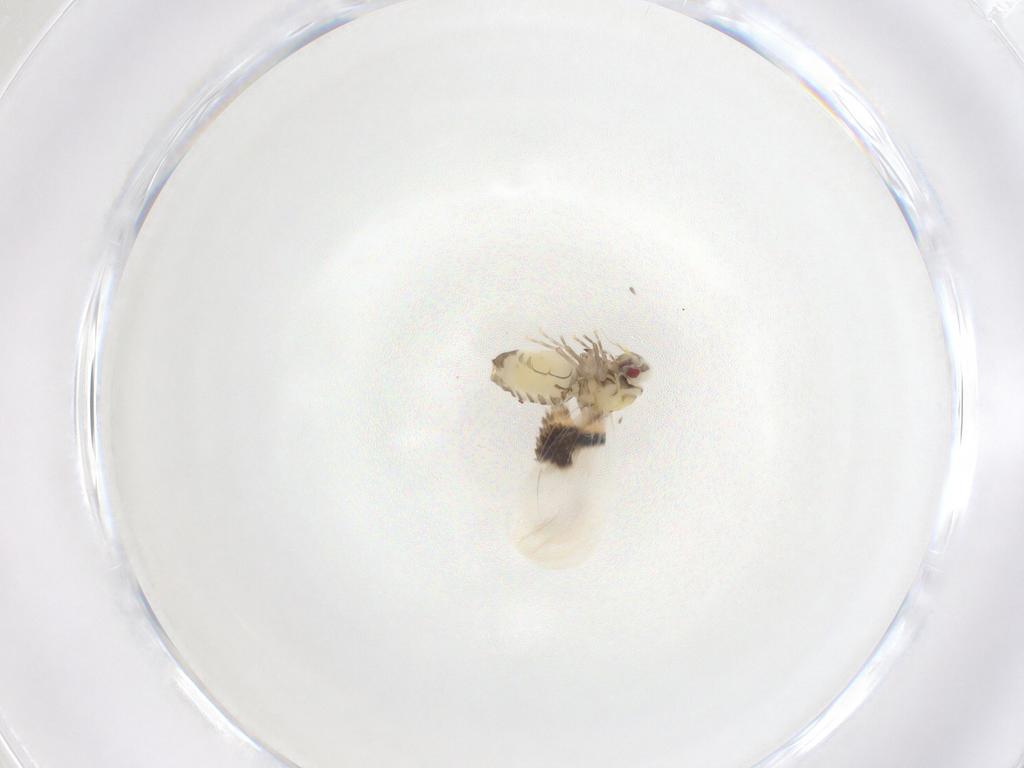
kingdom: Animalia
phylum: Arthropoda
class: Insecta
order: Hemiptera
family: Aleyrodidae
